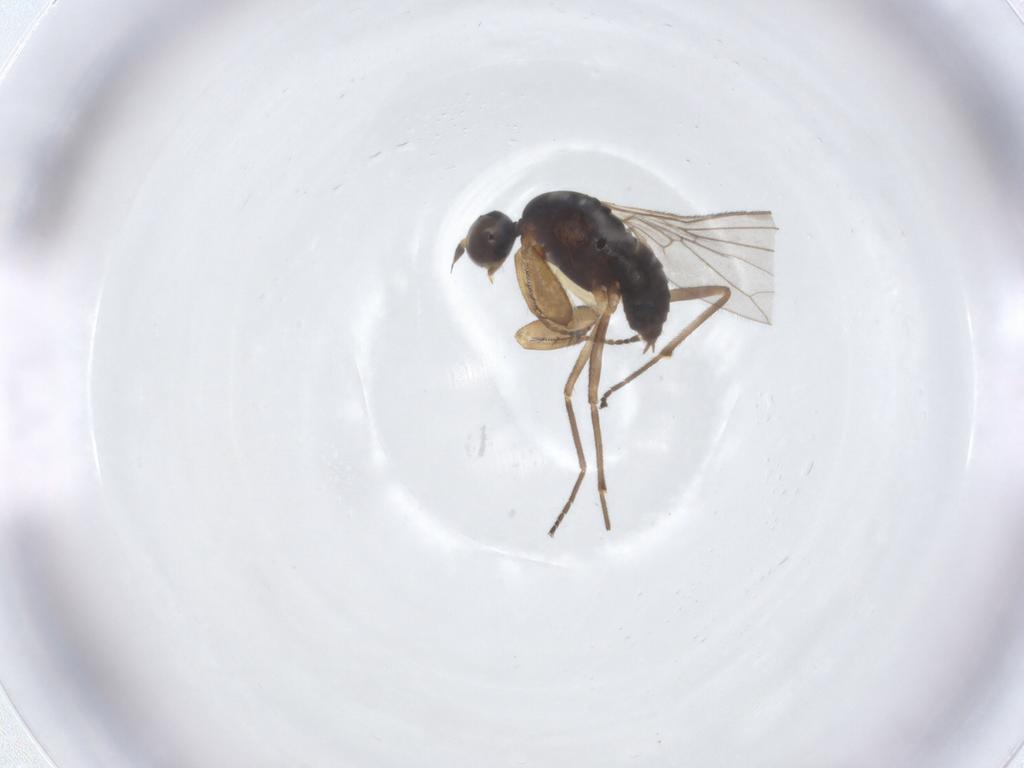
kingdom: Animalia
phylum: Arthropoda
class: Insecta
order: Diptera
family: Empididae
